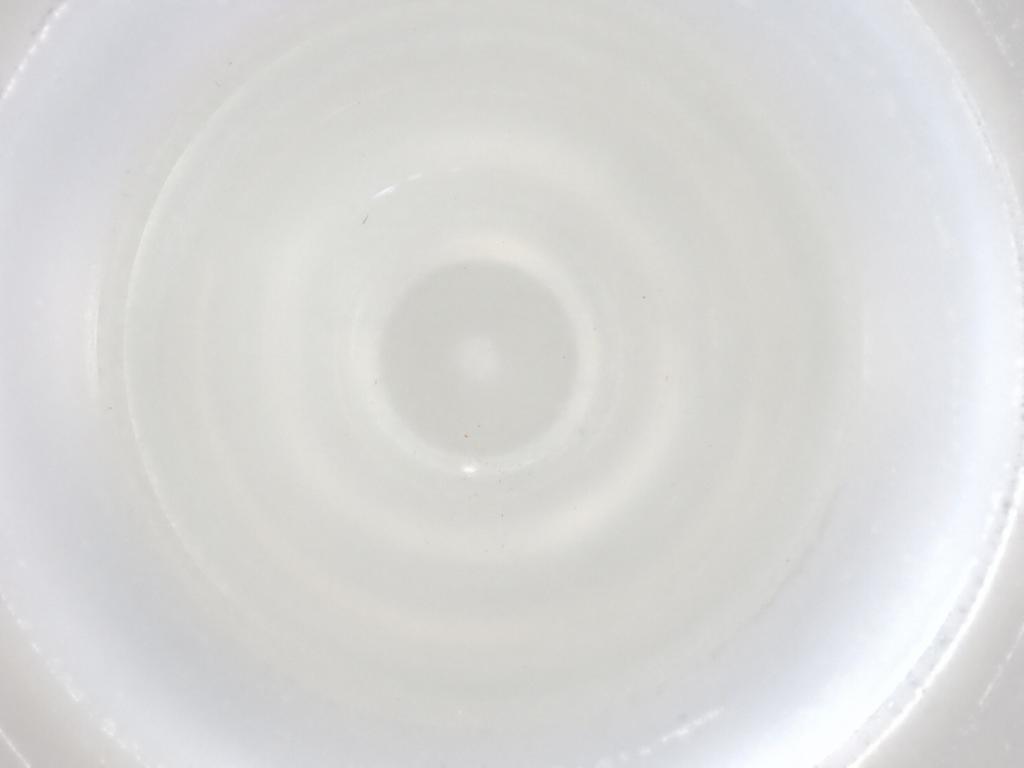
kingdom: Animalia
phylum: Arthropoda
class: Insecta
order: Hemiptera
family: Rhyparochromidae
